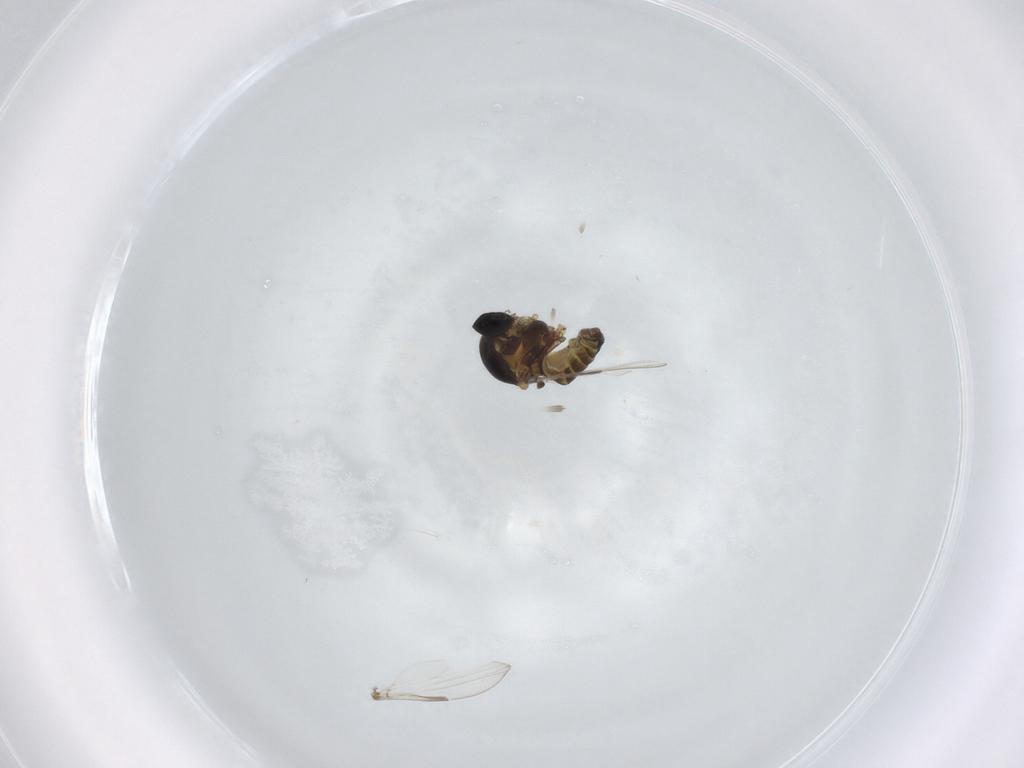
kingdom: Animalia
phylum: Arthropoda
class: Insecta
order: Diptera
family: Ceratopogonidae
